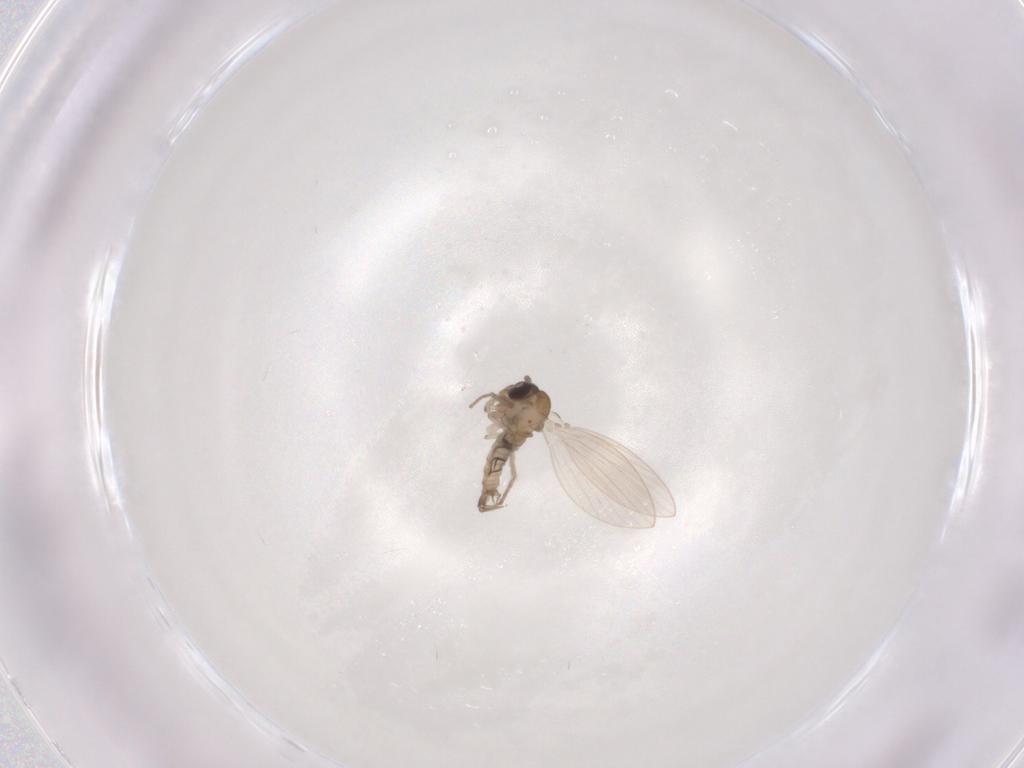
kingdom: Animalia
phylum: Arthropoda
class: Insecta
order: Diptera
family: Psychodidae
